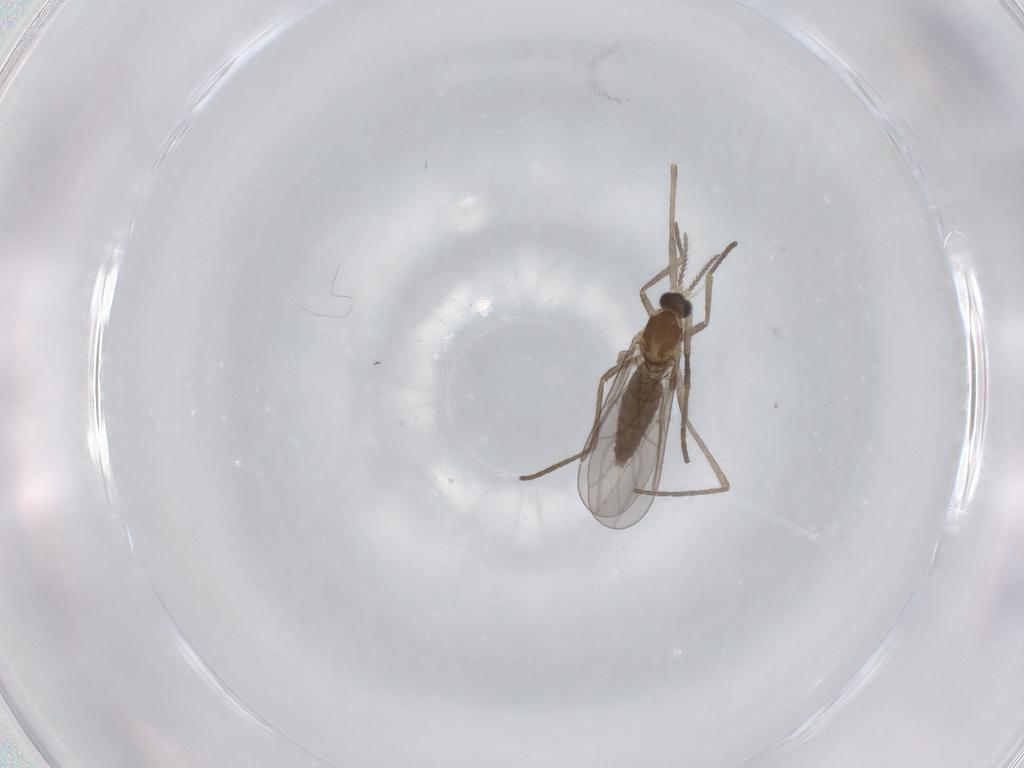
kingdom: Animalia
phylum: Arthropoda
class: Insecta
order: Diptera
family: Cecidomyiidae
